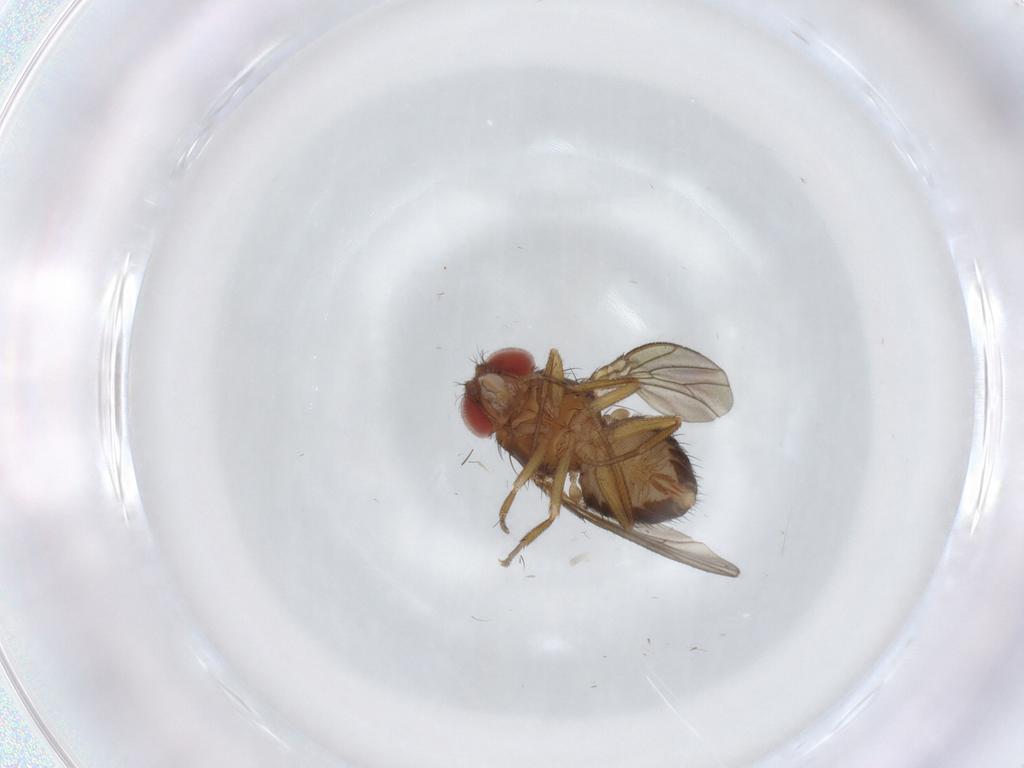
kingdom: Animalia
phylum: Arthropoda
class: Insecta
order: Diptera
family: Drosophilidae
